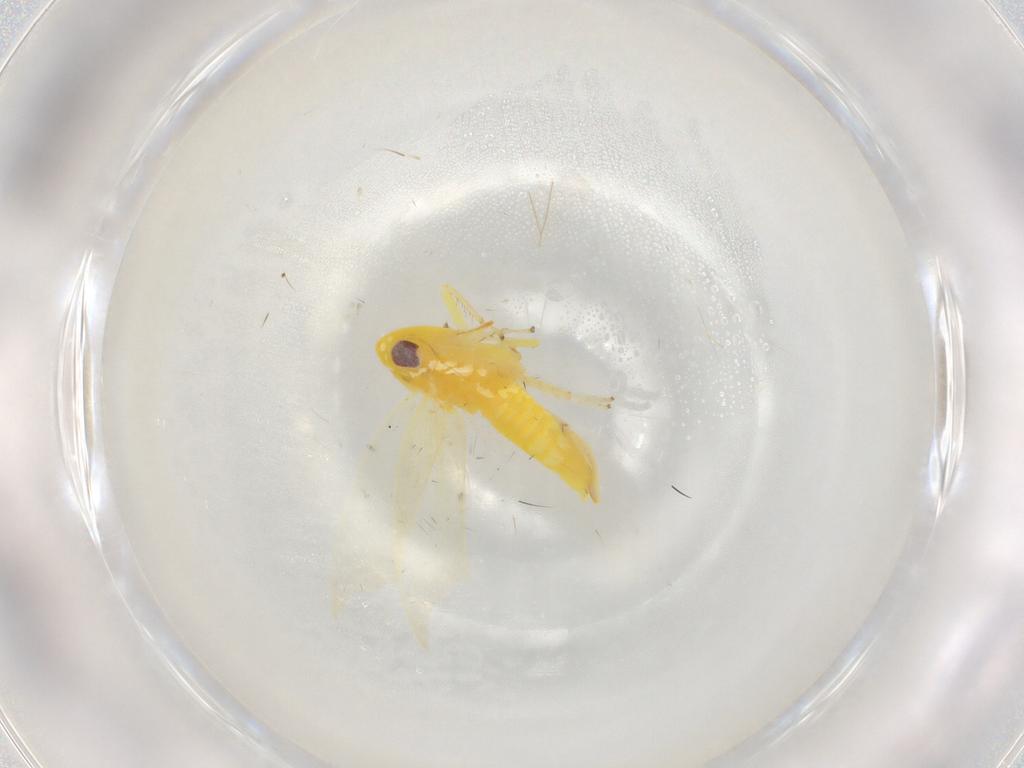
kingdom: Animalia
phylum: Arthropoda
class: Insecta
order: Hemiptera
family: Cicadellidae
